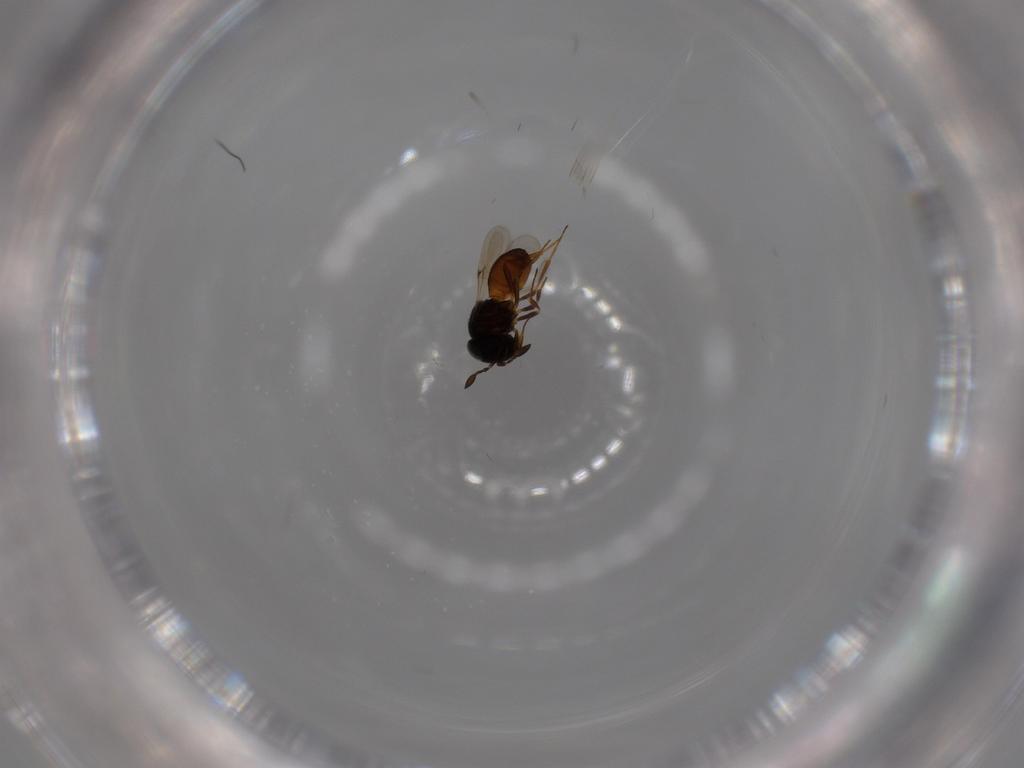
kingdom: Animalia
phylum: Arthropoda
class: Insecta
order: Hymenoptera
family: Scelionidae
